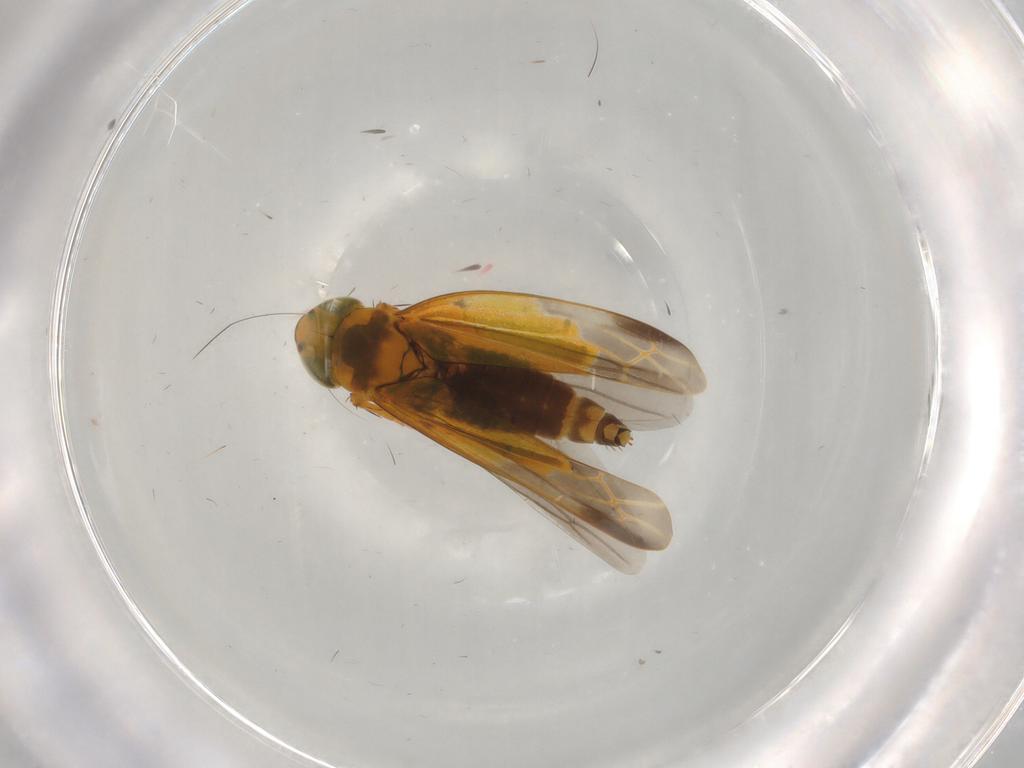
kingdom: Animalia
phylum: Arthropoda
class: Insecta
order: Hemiptera
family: Cicadellidae
